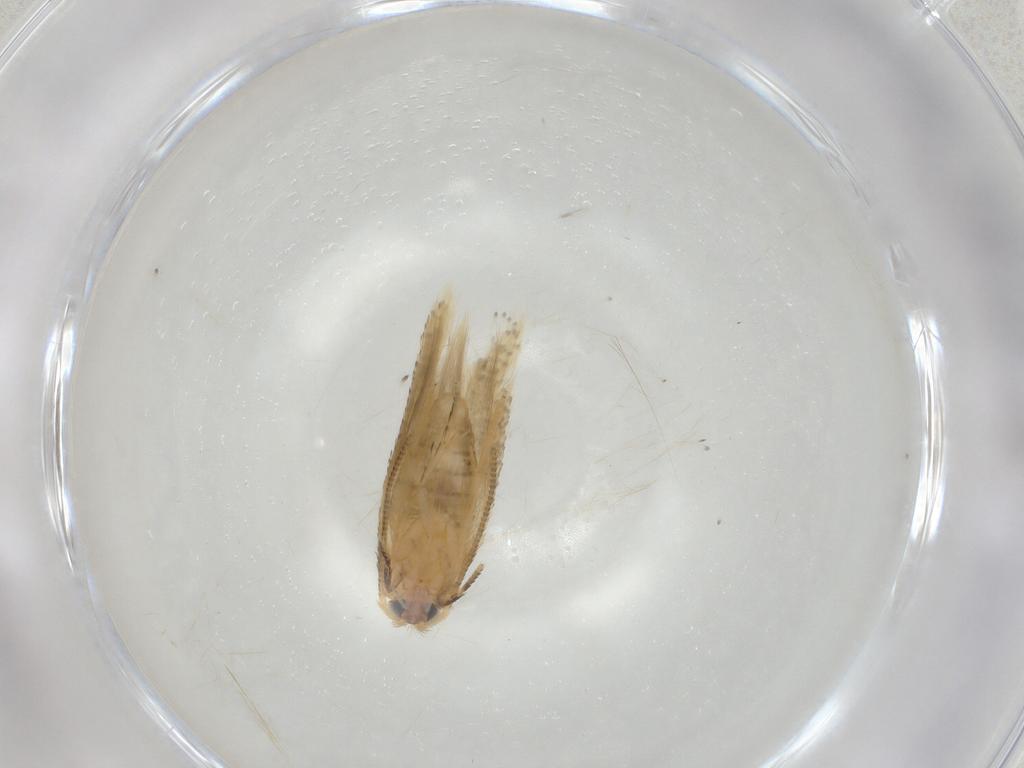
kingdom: Animalia
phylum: Arthropoda
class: Insecta
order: Lepidoptera
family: Nepticulidae
